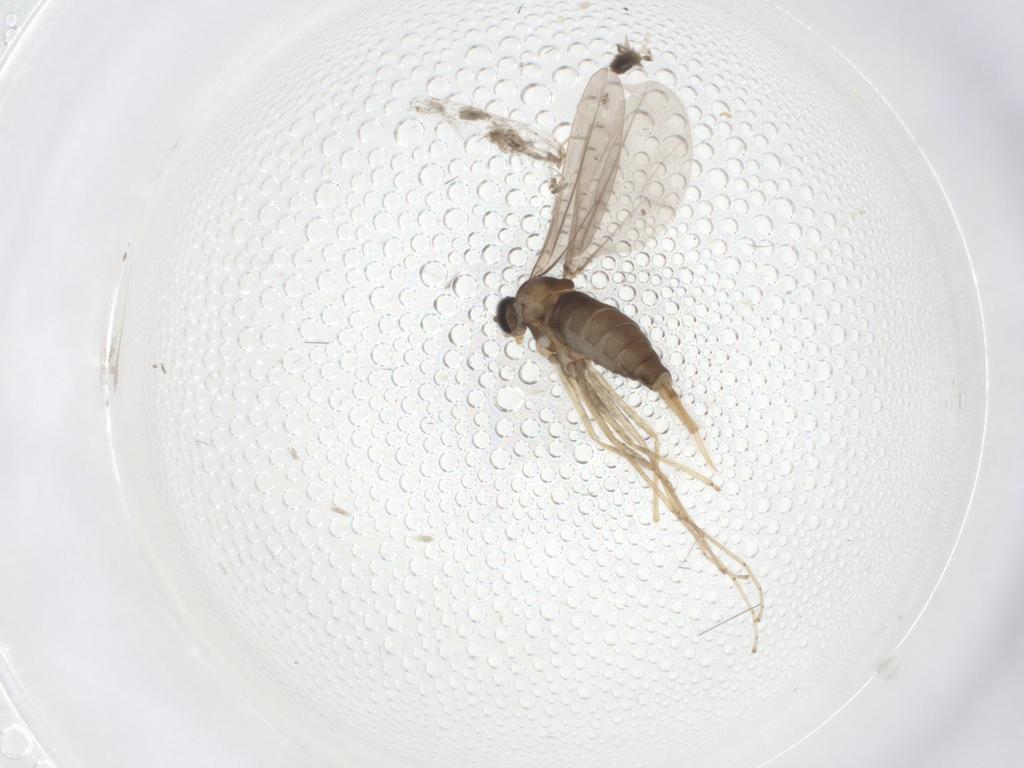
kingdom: Animalia
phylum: Arthropoda
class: Insecta
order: Diptera
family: Cecidomyiidae
